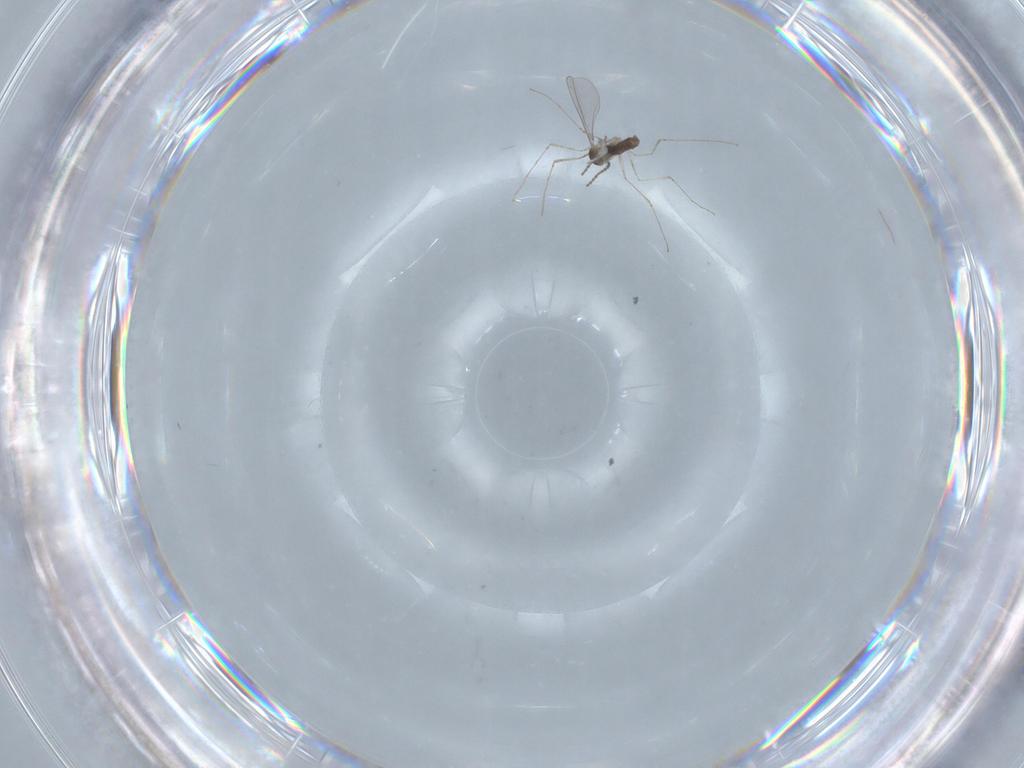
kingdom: Animalia
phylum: Arthropoda
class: Insecta
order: Diptera
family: Cecidomyiidae
